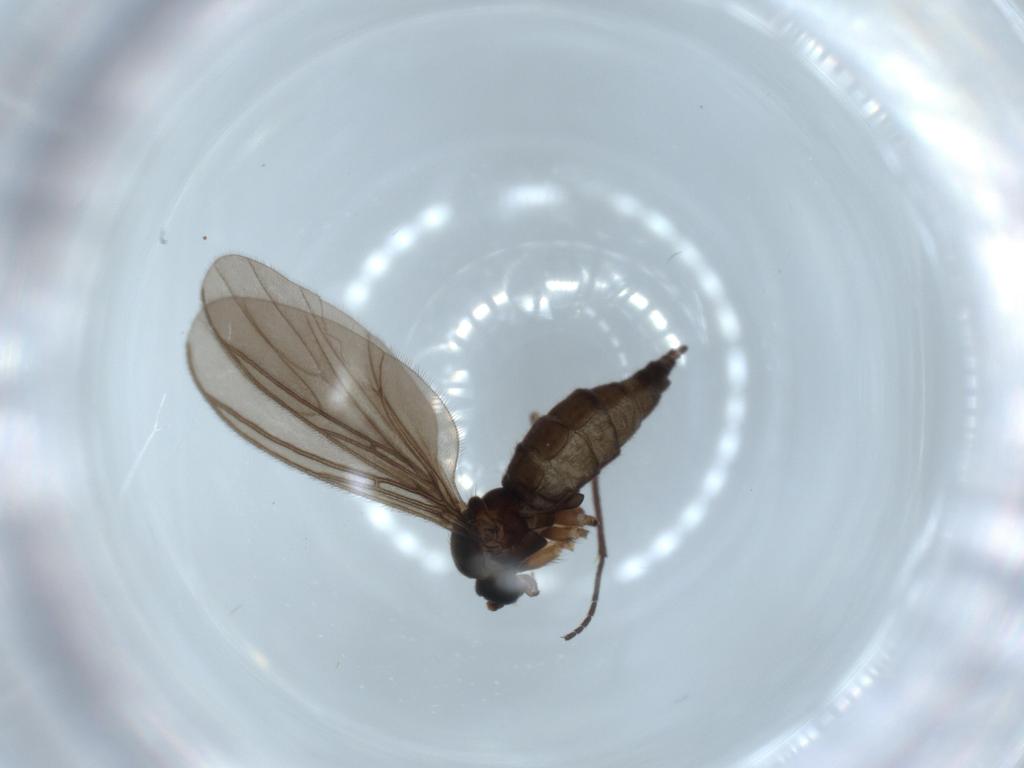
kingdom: Animalia
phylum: Arthropoda
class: Insecta
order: Diptera
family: Sciaridae
